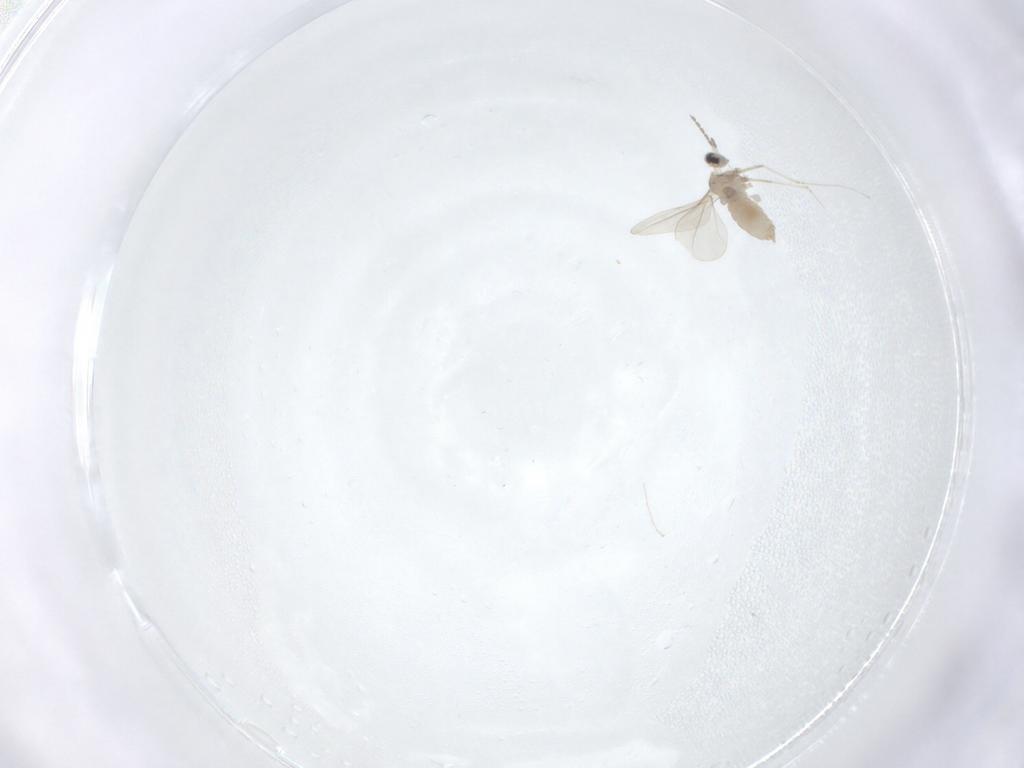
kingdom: Animalia
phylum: Arthropoda
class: Insecta
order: Diptera
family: Cecidomyiidae
